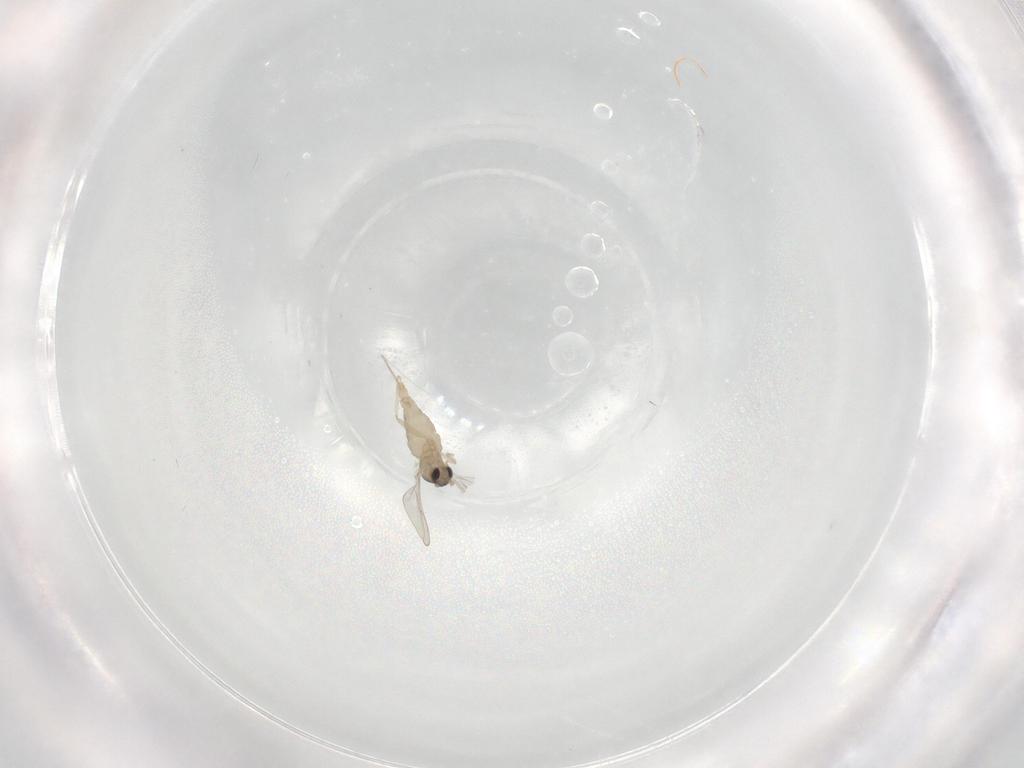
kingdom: Animalia
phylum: Arthropoda
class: Insecta
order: Diptera
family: Cecidomyiidae
